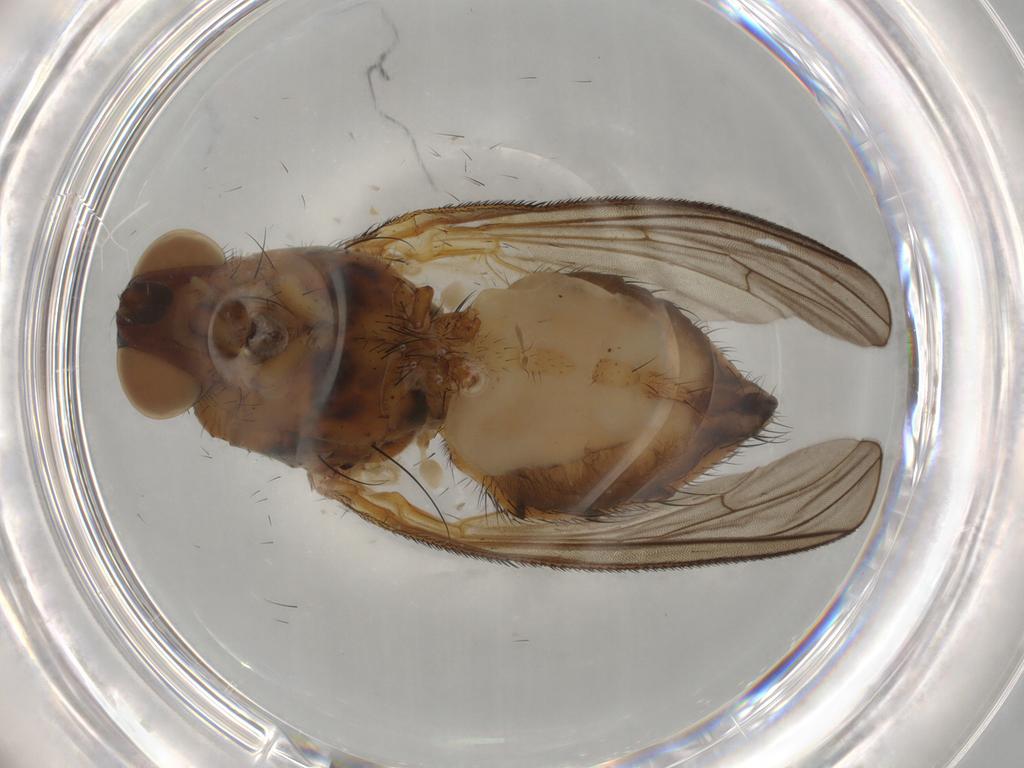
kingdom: Animalia
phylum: Arthropoda
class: Insecta
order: Diptera
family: Anthomyiidae
